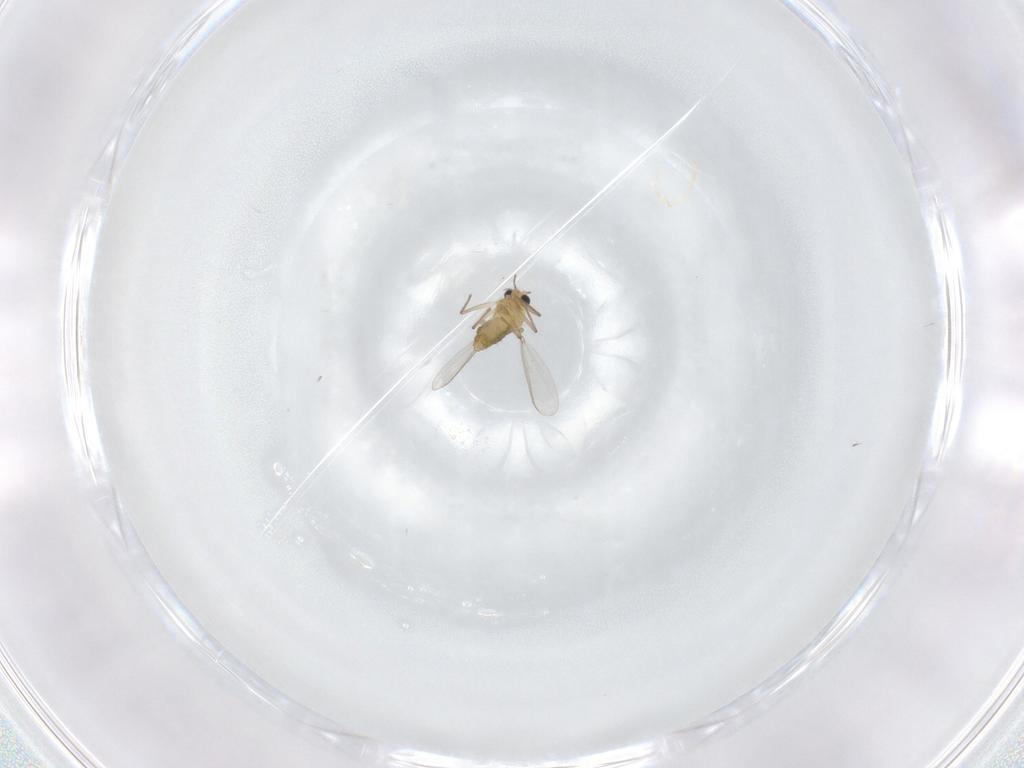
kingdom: Animalia
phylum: Arthropoda
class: Insecta
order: Diptera
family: Chironomidae
